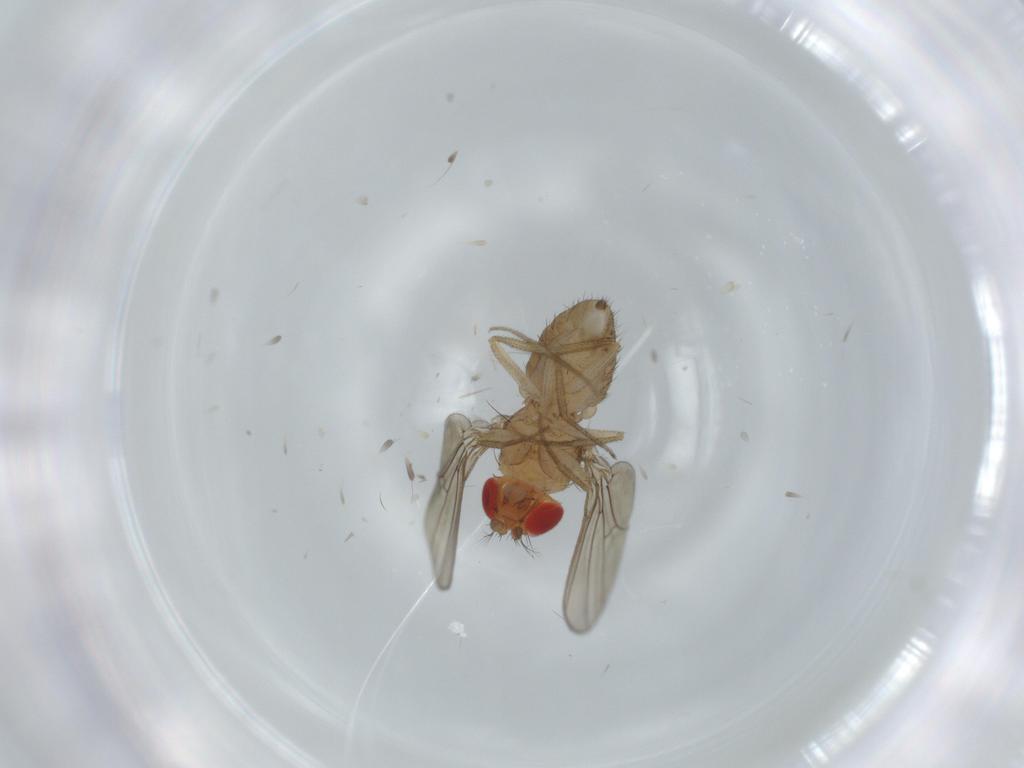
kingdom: Animalia
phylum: Arthropoda
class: Insecta
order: Diptera
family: Drosophilidae
